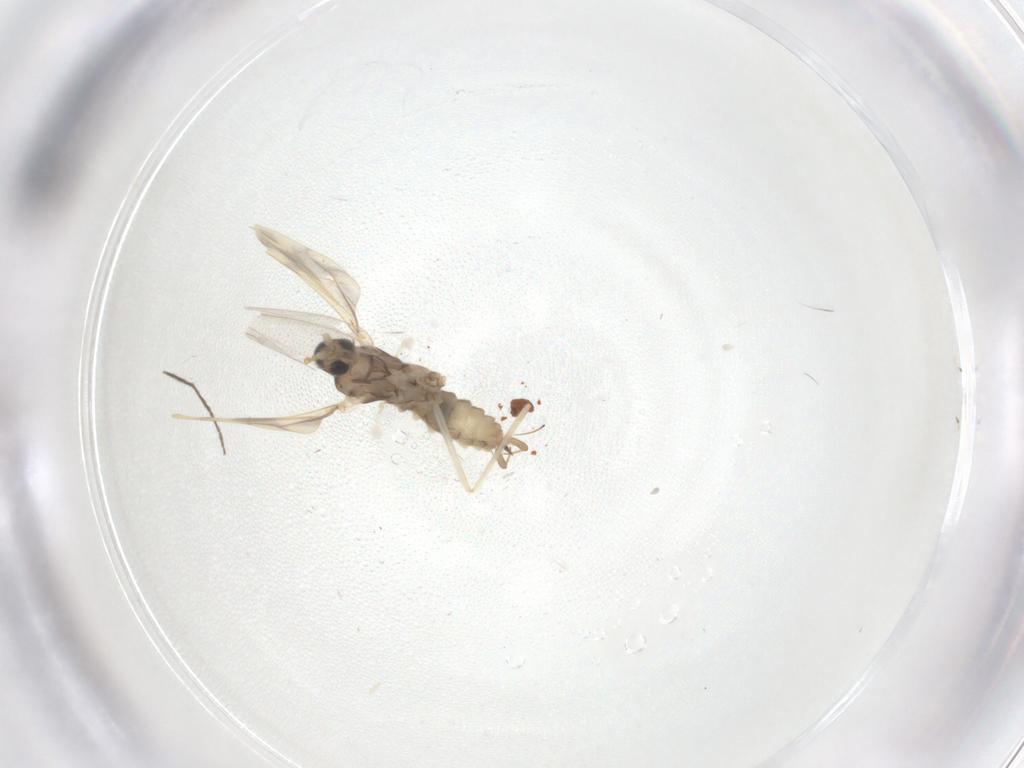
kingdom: Animalia
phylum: Arthropoda
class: Insecta
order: Diptera
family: Cecidomyiidae
